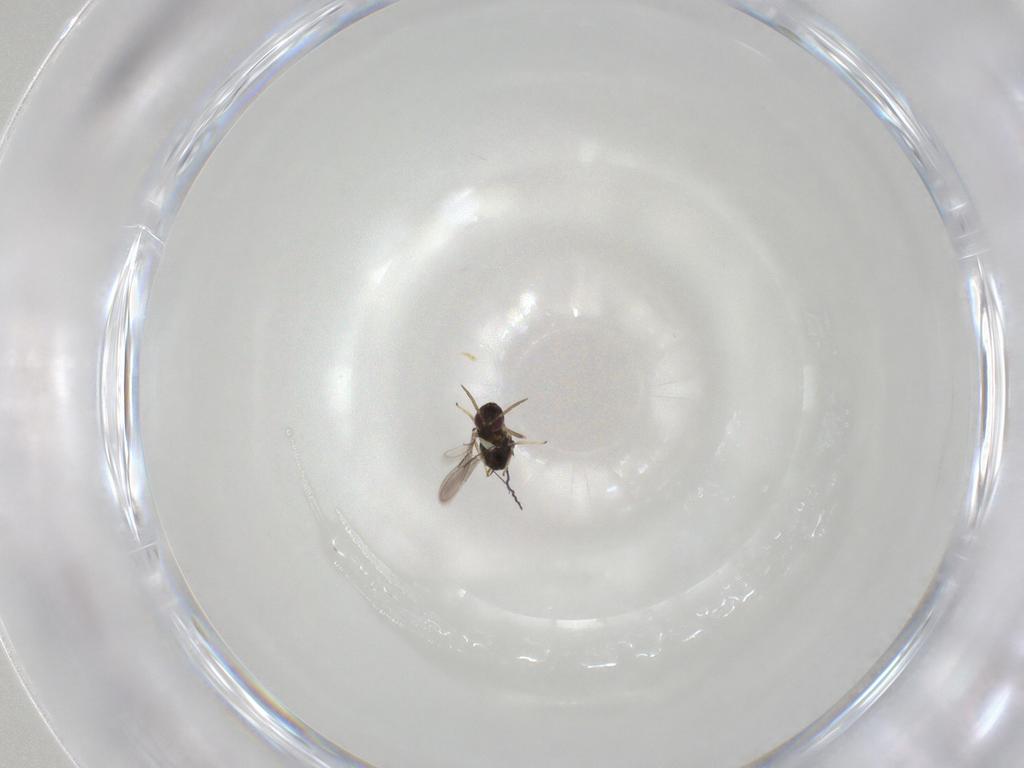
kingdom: Animalia
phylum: Arthropoda
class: Insecta
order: Hymenoptera
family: Aphelinidae
